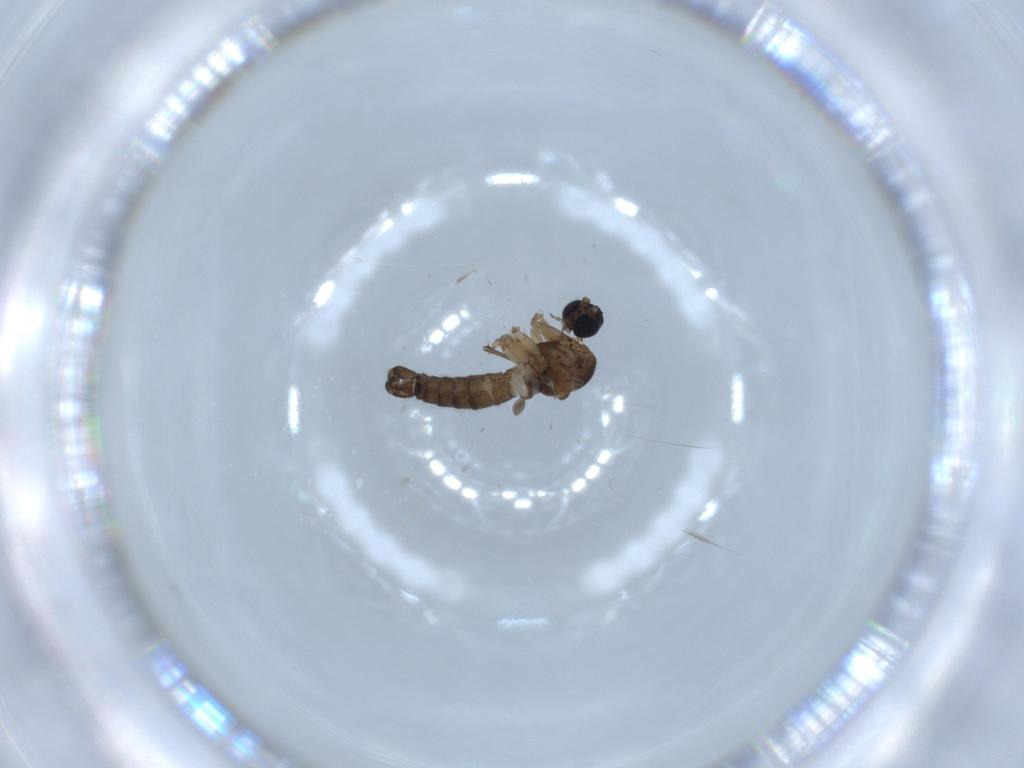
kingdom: Animalia
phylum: Arthropoda
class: Insecta
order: Diptera
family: Sciaridae
